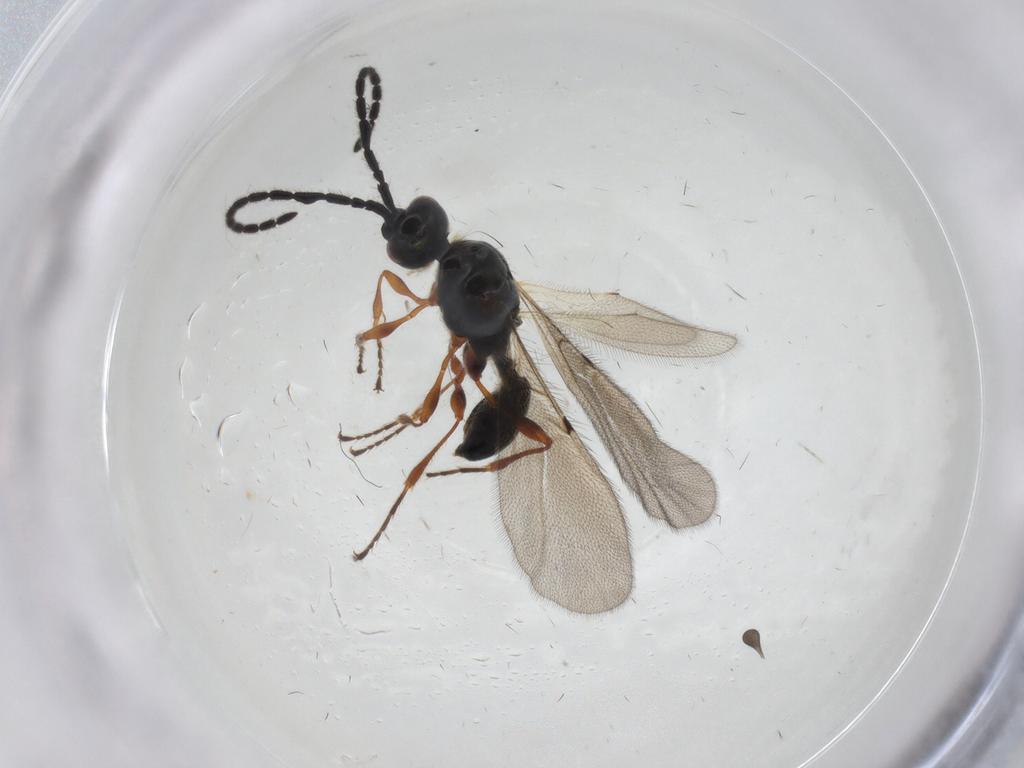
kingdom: Animalia
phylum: Arthropoda
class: Insecta
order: Hymenoptera
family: Diapriidae
